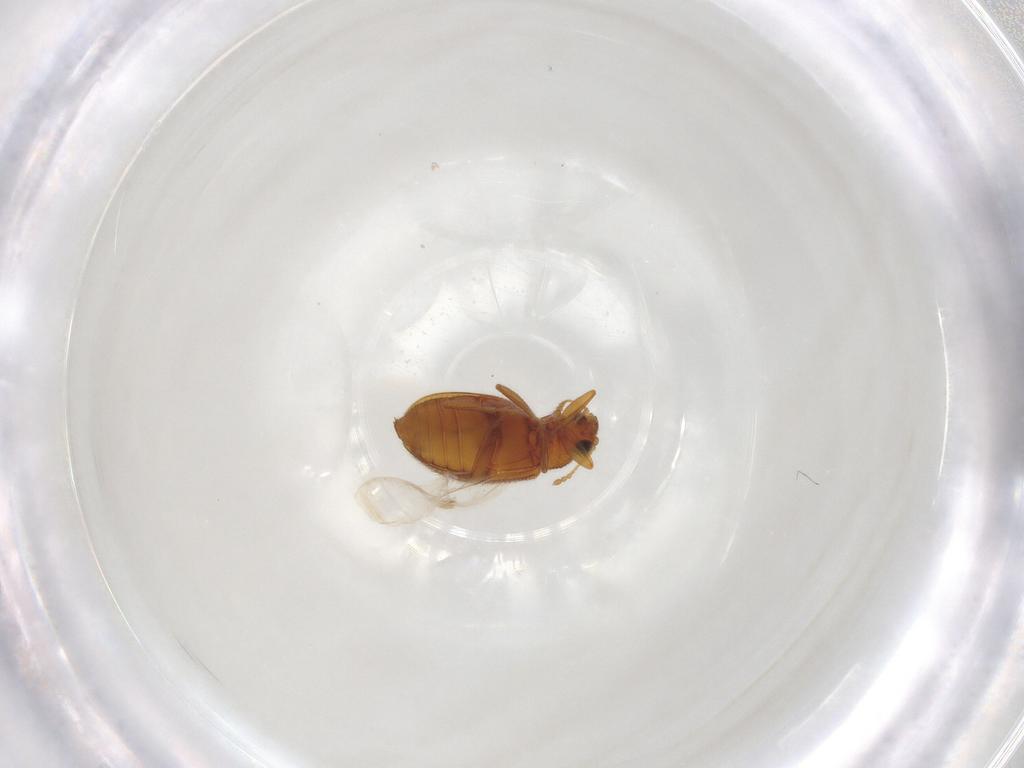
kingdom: Animalia
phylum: Arthropoda
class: Insecta
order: Coleoptera
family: Latridiidae
